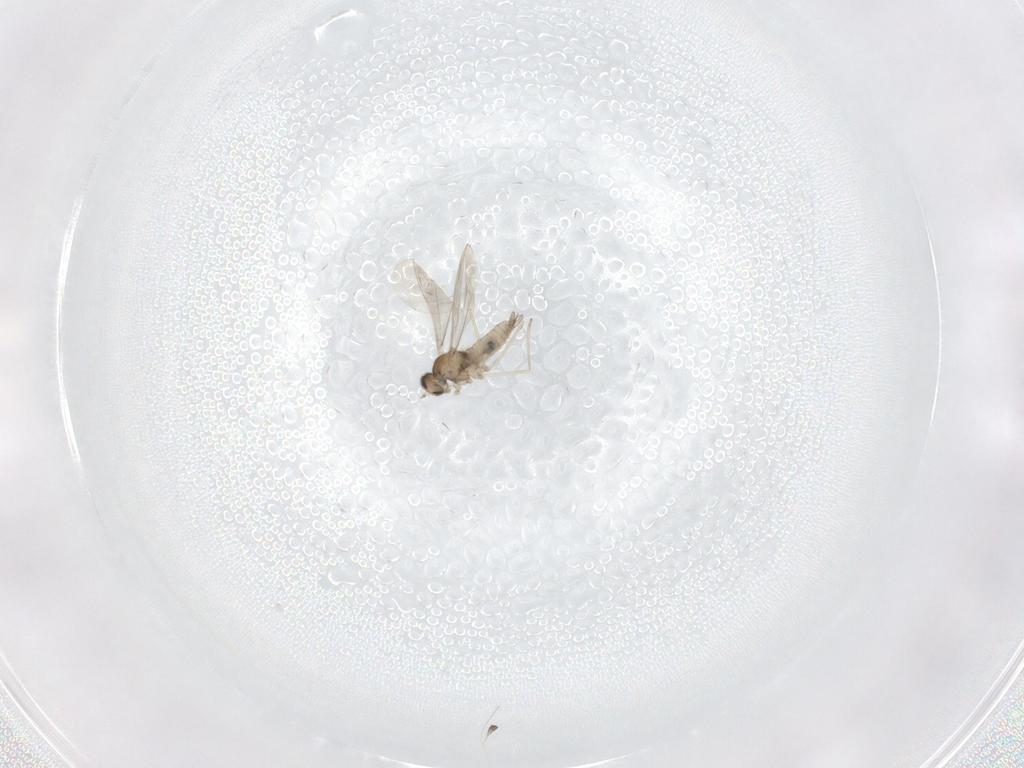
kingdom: Animalia
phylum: Arthropoda
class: Insecta
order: Diptera
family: Cecidomyiidae
